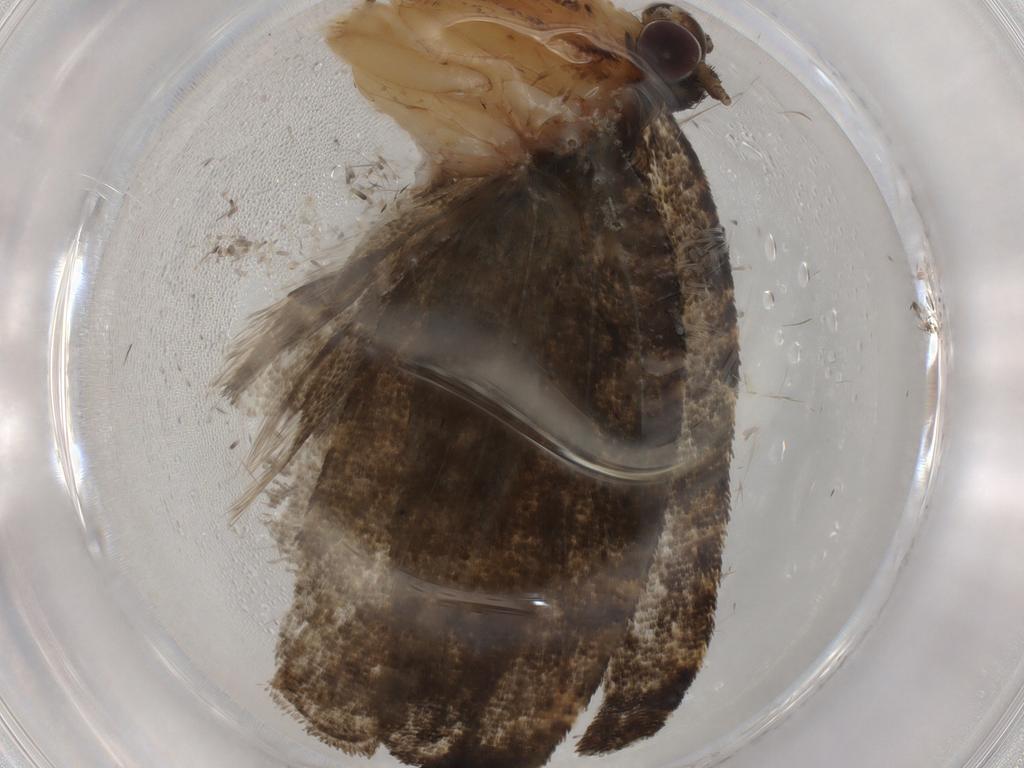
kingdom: Animalia
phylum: Arthropoda
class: Insecta
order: Lepidoptera
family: Tortricidae
